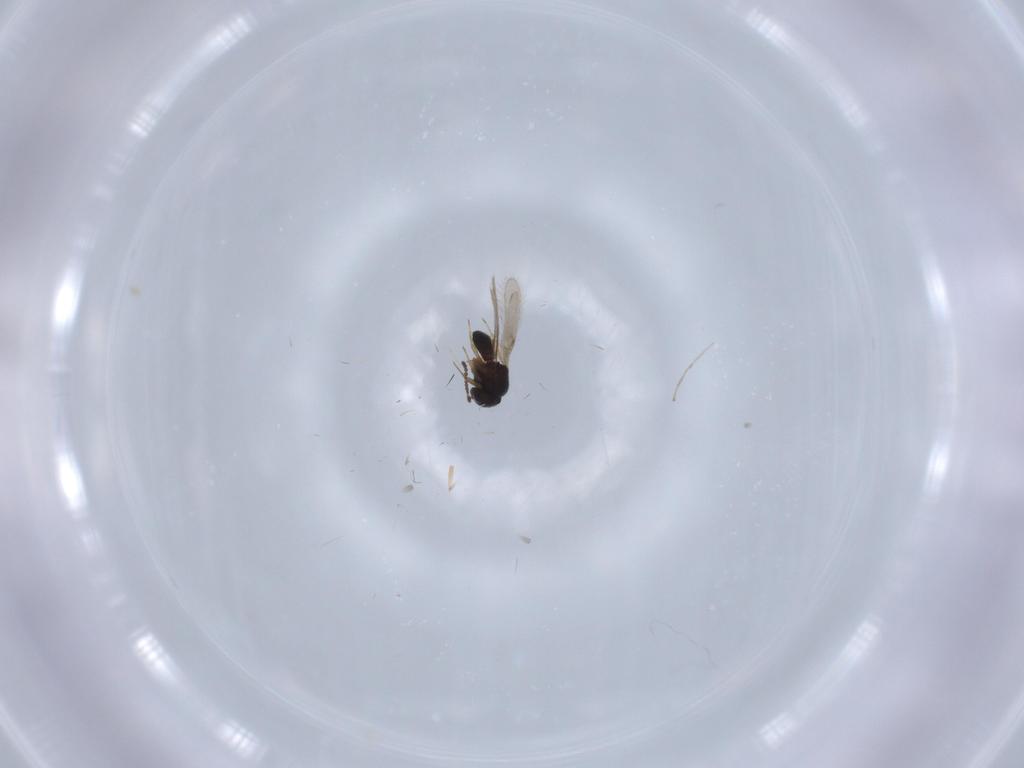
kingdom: Animalia
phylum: Arthropoda
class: Insecta
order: Hymenoptera
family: Scelionidae
